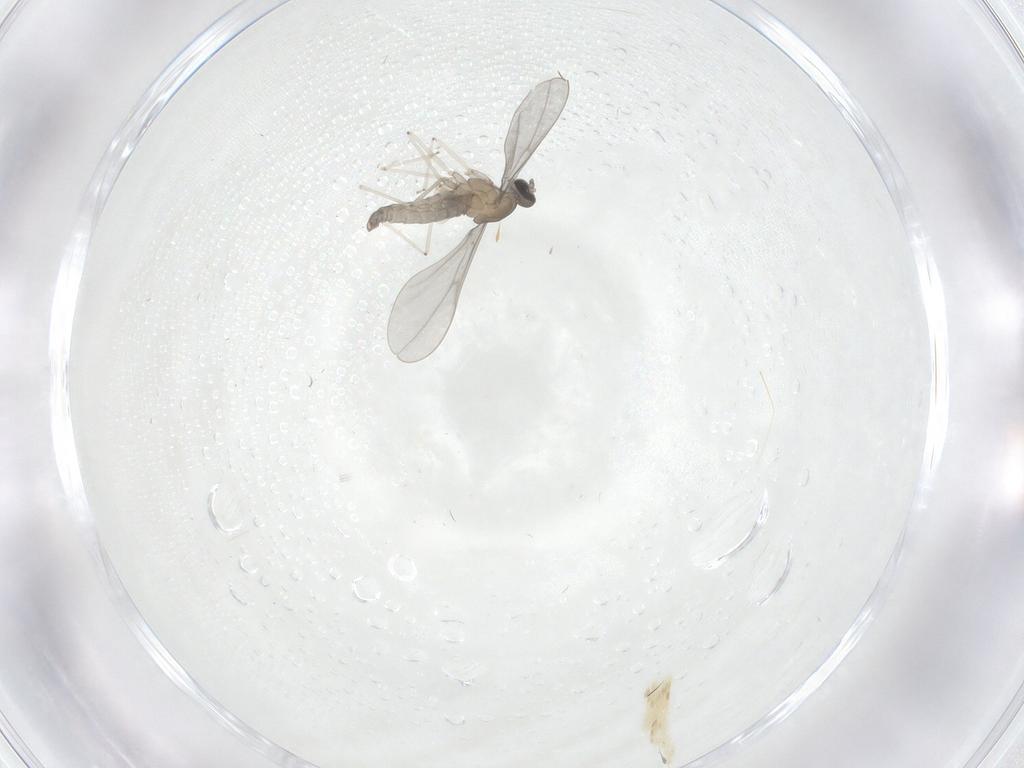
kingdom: Animalia
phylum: Arthropoda
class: Insecta
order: Diptera
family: Cecidomyiidae
